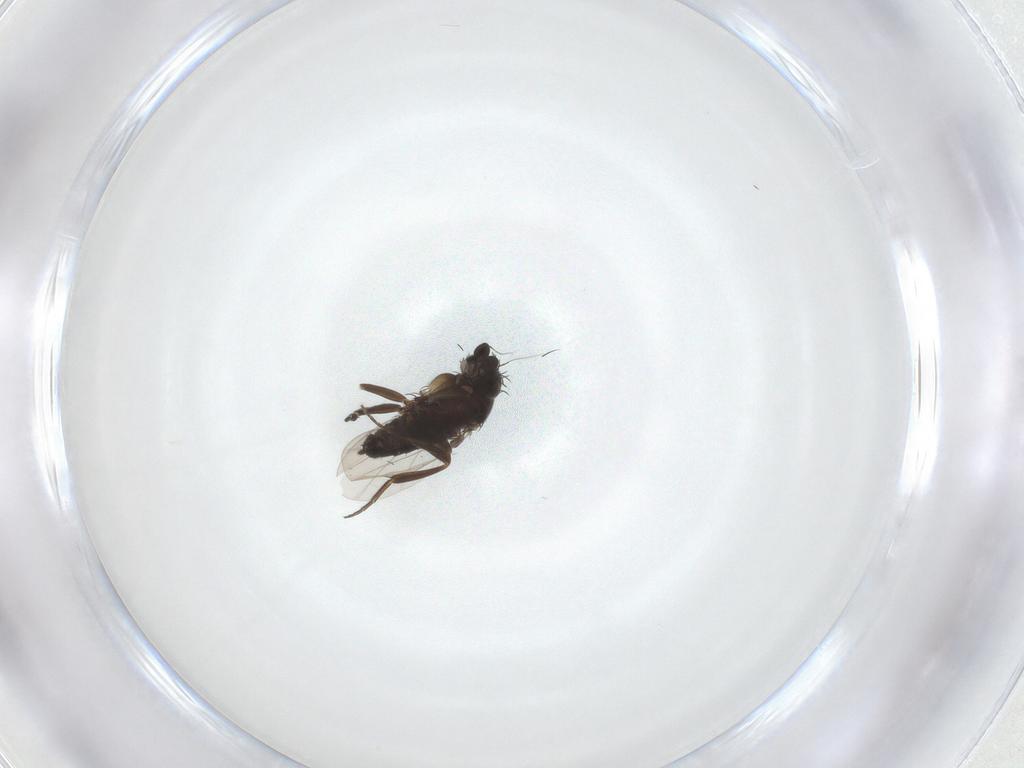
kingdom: Animalia
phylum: Arthropoda
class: Insecta
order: Diptera
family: Phoridae
